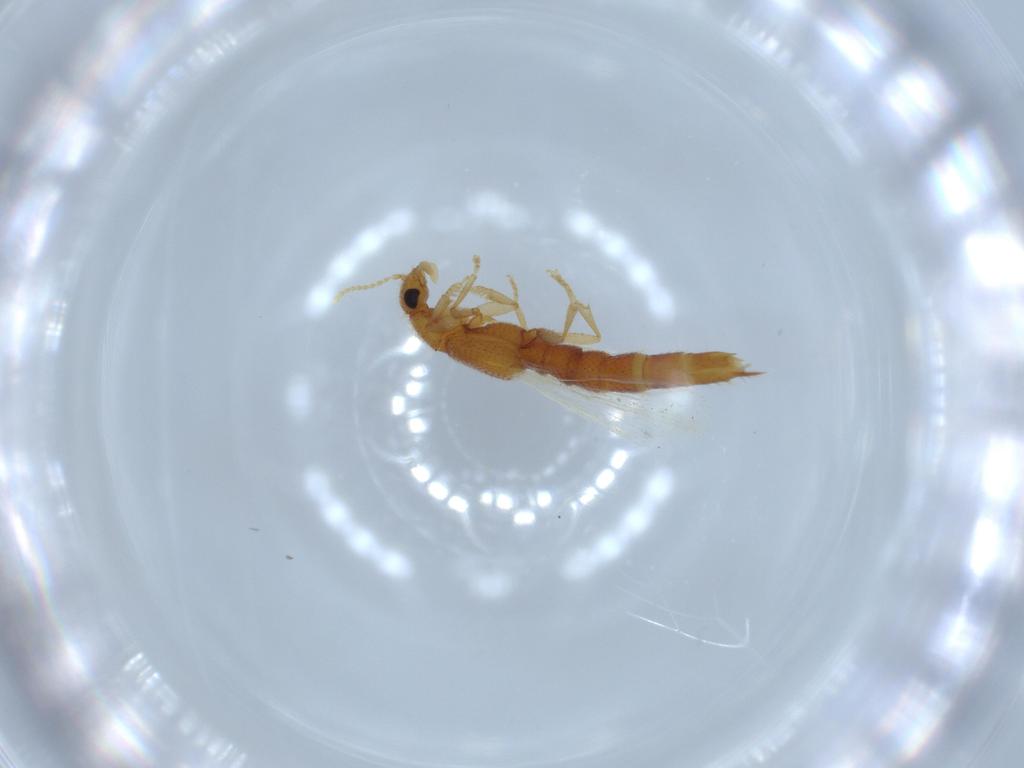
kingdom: Animalia
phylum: Arthropoda
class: Insecta
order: Coleoptera
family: Staphylinidae
